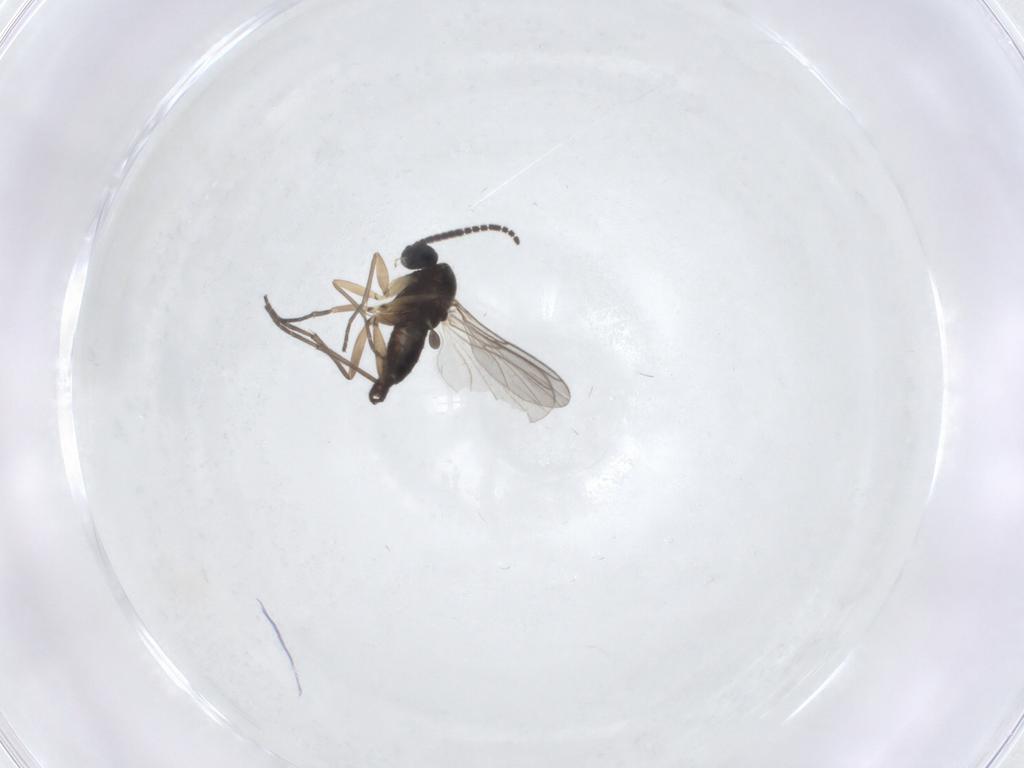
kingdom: Animalia
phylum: Arthropoda
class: Insecta
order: Diptera
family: Sciaridae
